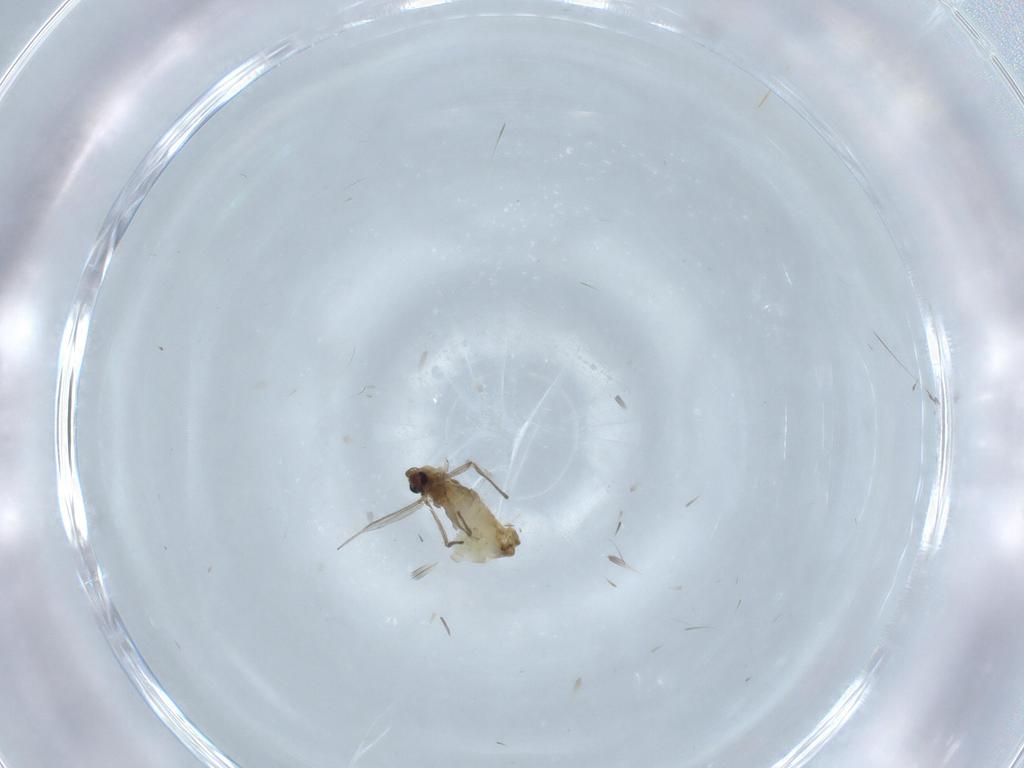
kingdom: Animalia
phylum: Arthropoda
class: Insecta
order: Diptera
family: Chironomidae
